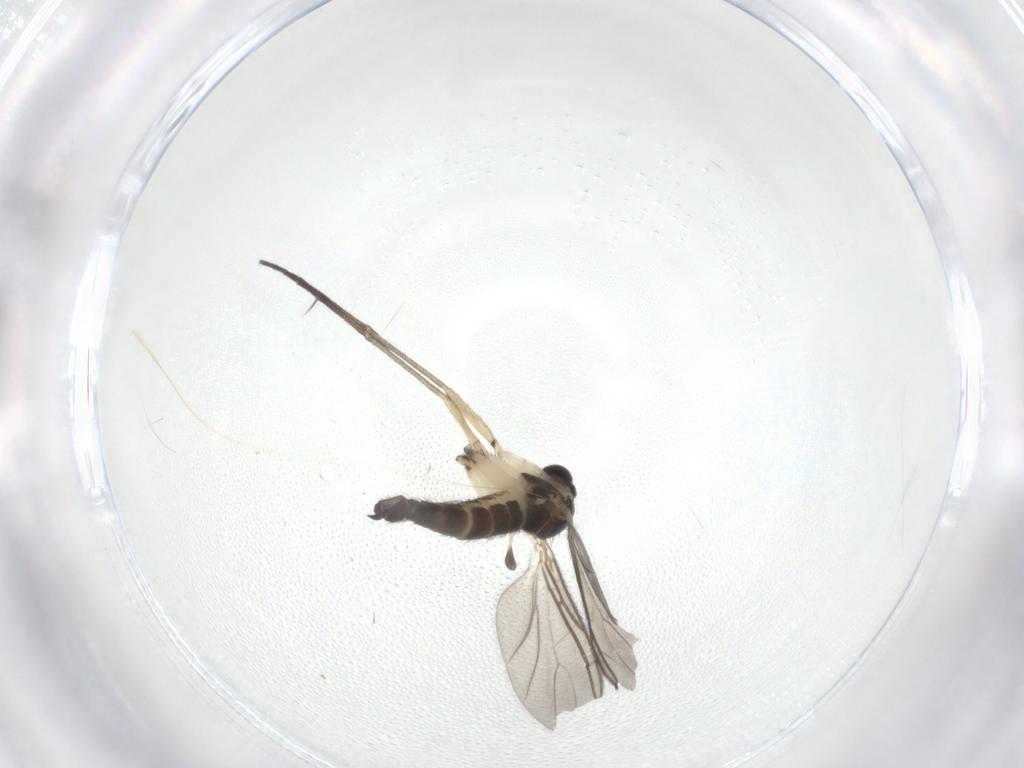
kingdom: Animalia
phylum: Arthropoda
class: Insecta
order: Diptera
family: Sciaridae
